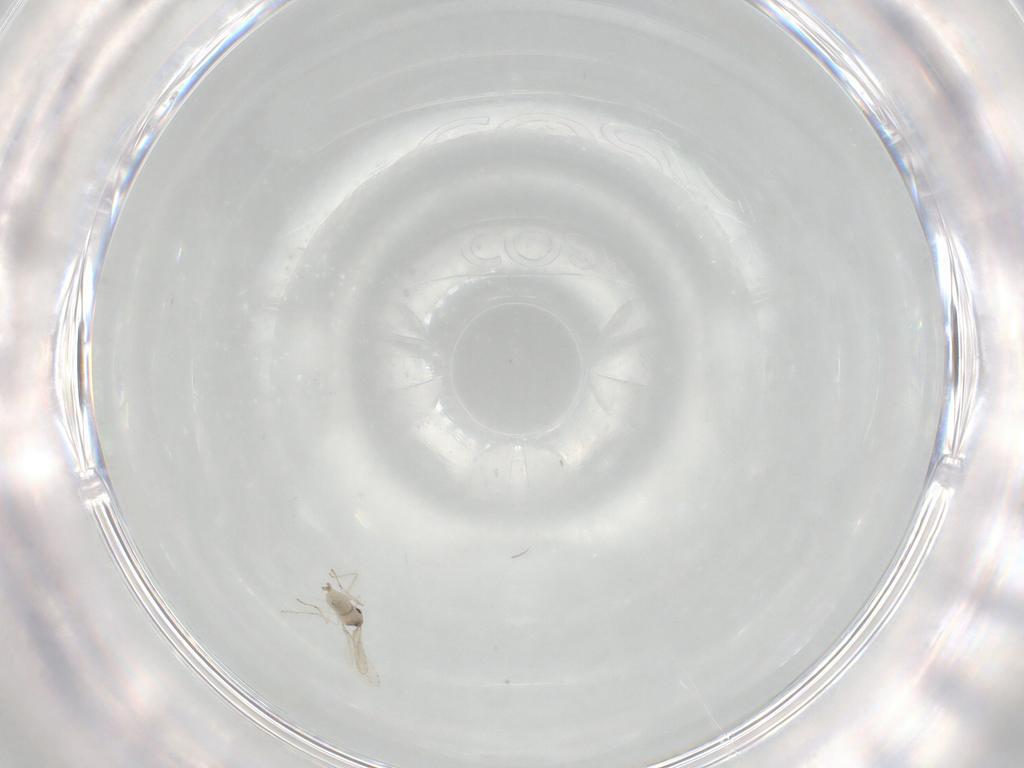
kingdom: Animalia
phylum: Arthropoda
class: Insecta
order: Diptera
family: Cecidomyiidae
